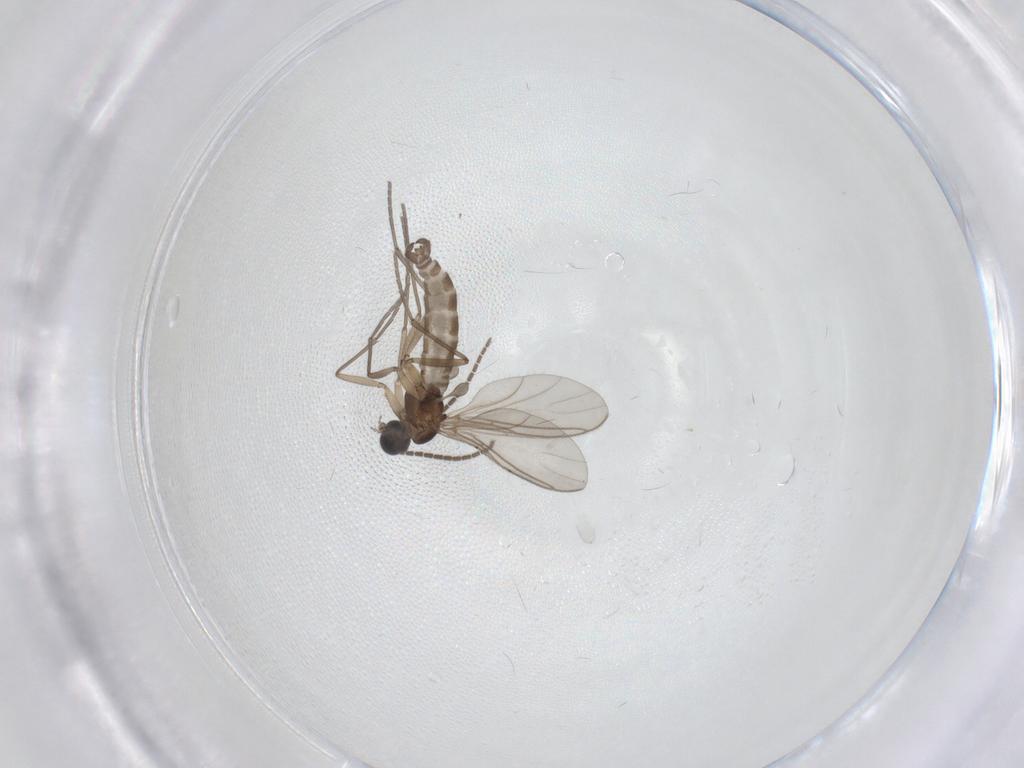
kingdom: Animalia
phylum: Arthropoda
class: Insecta
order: Diptera
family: Sciaridae
